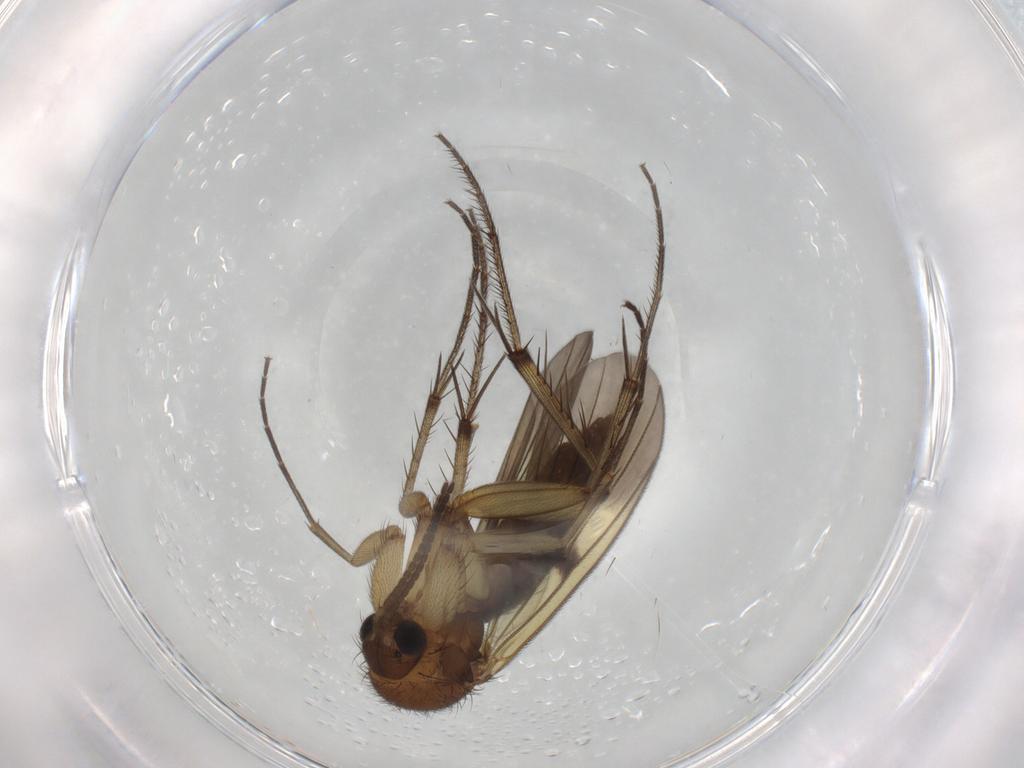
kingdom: Animalia
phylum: Arthropoda
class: Insecta
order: Diptera
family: Mycetophilidae
